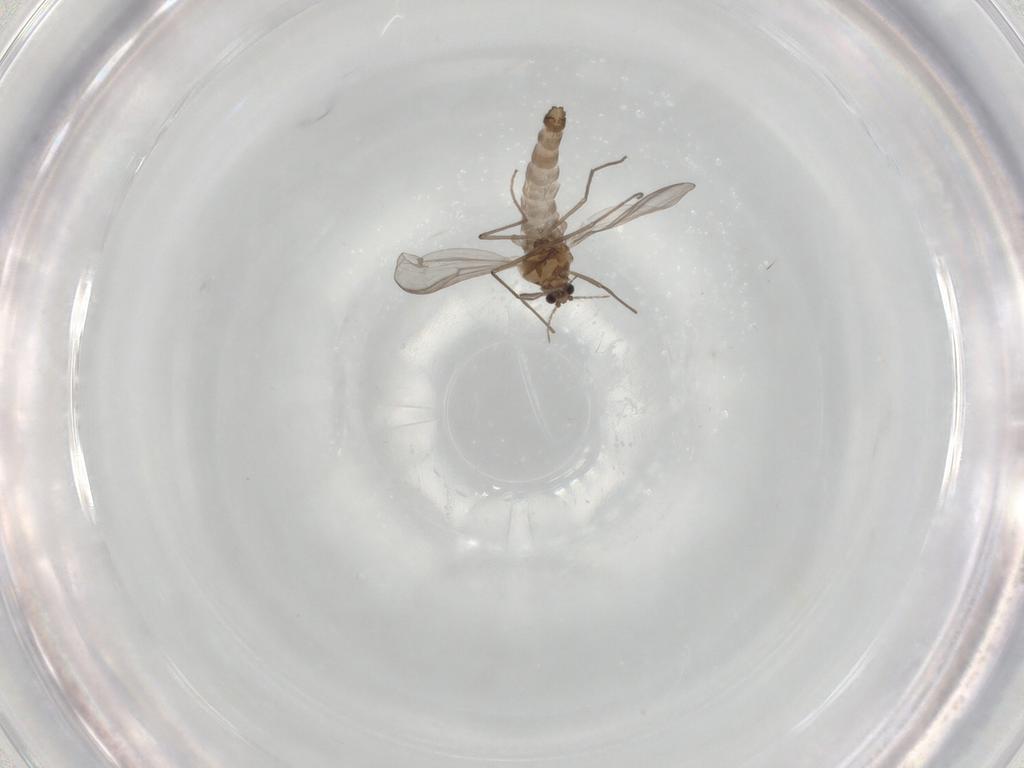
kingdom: Animalia
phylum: Arthropoda
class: Insecta
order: Diptera
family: Chironomidae
